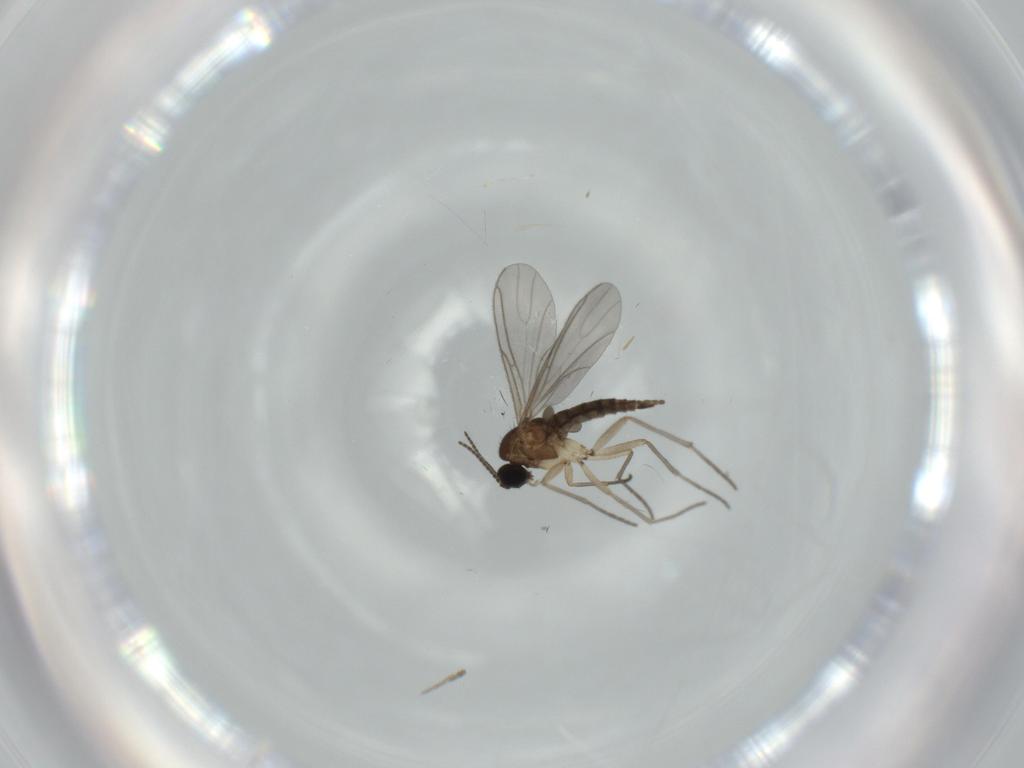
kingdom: Animalia
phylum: Arthropoda
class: Insecta
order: Diptera
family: Sciaridae
